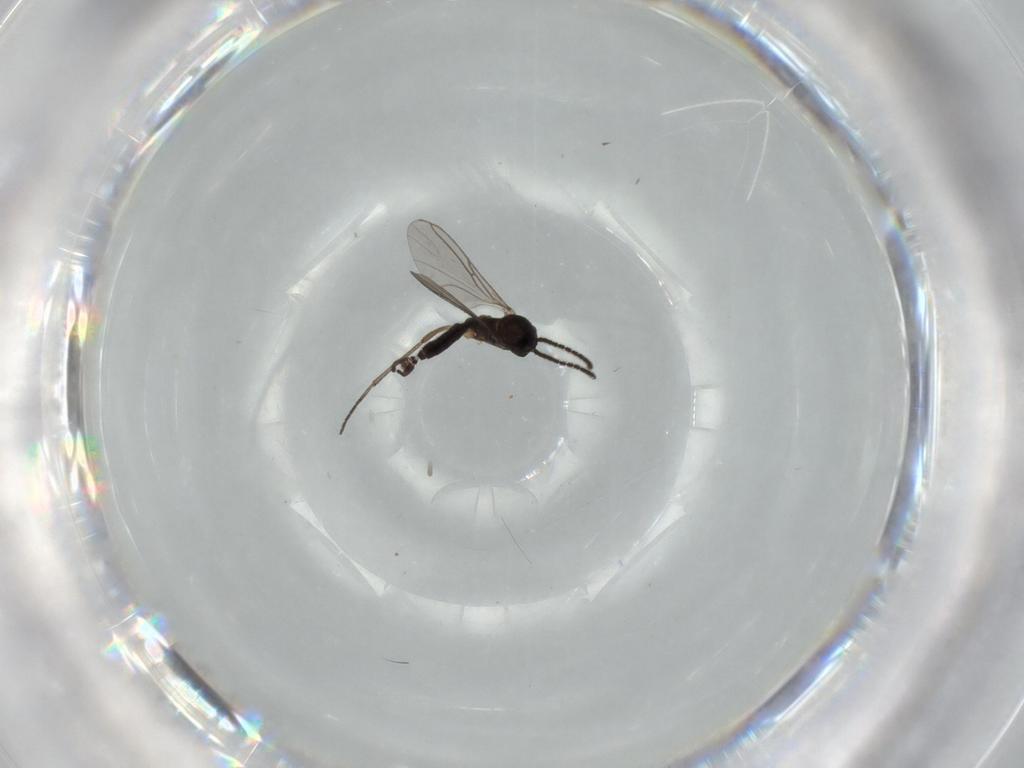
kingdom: Animalia
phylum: Arthropoda
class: Insecta
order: Diptera
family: Sciaridae
